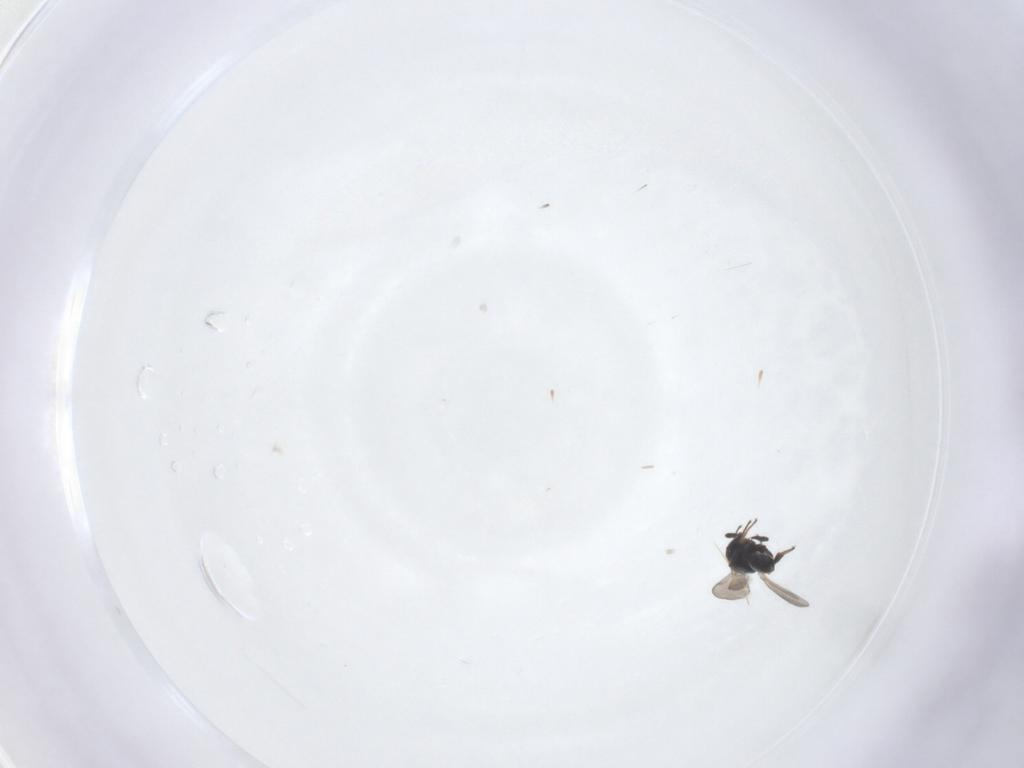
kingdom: Animalia
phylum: Arthropoda
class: Insecta
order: Hymenoptera
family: Platygastridae
